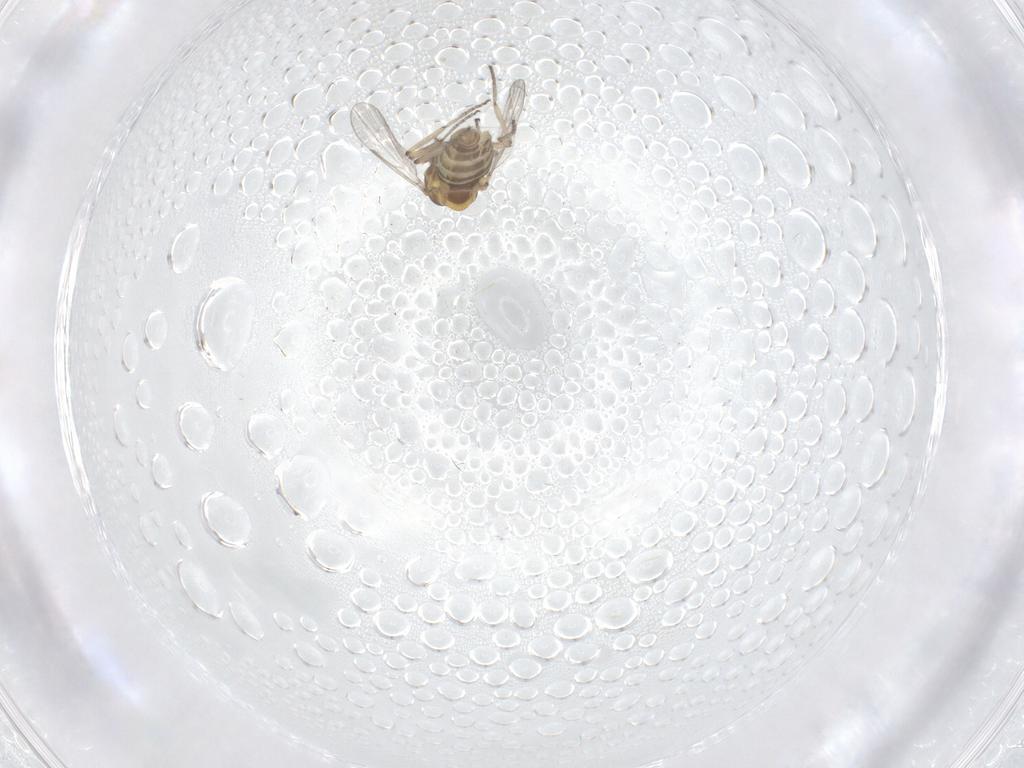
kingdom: Animalia
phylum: Arthropoda
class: Insecta
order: Diptera
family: Ceratopogonidae
